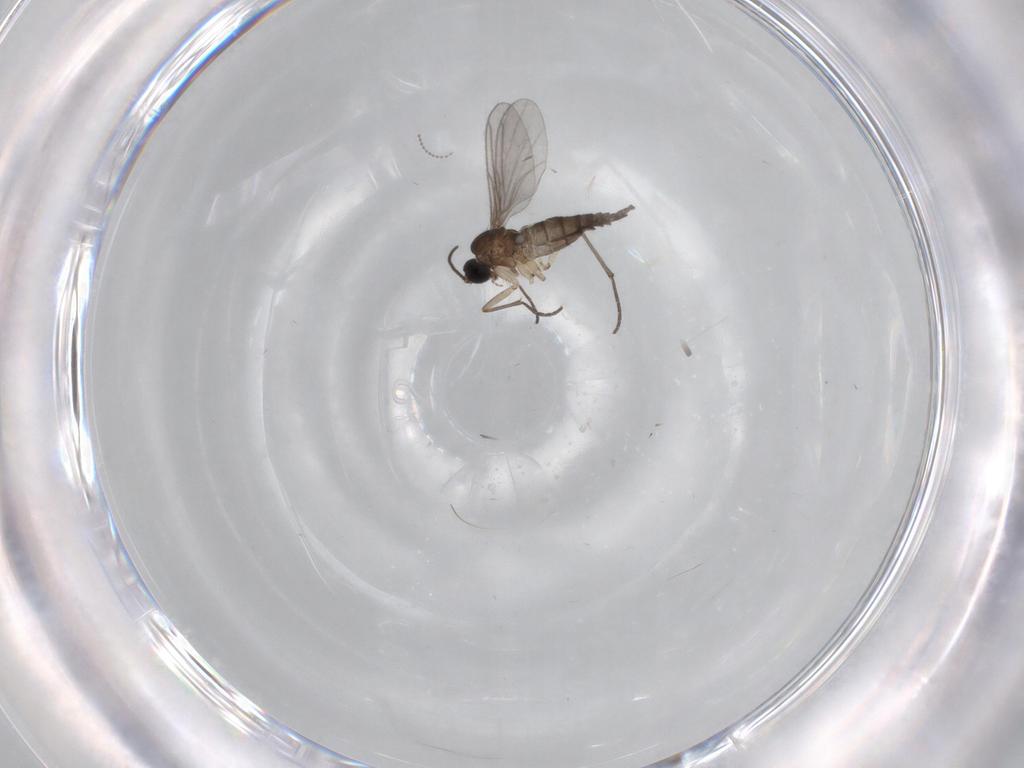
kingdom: Animalia
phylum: Arthropoda
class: Insecta
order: Diptera
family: Sciaridae
